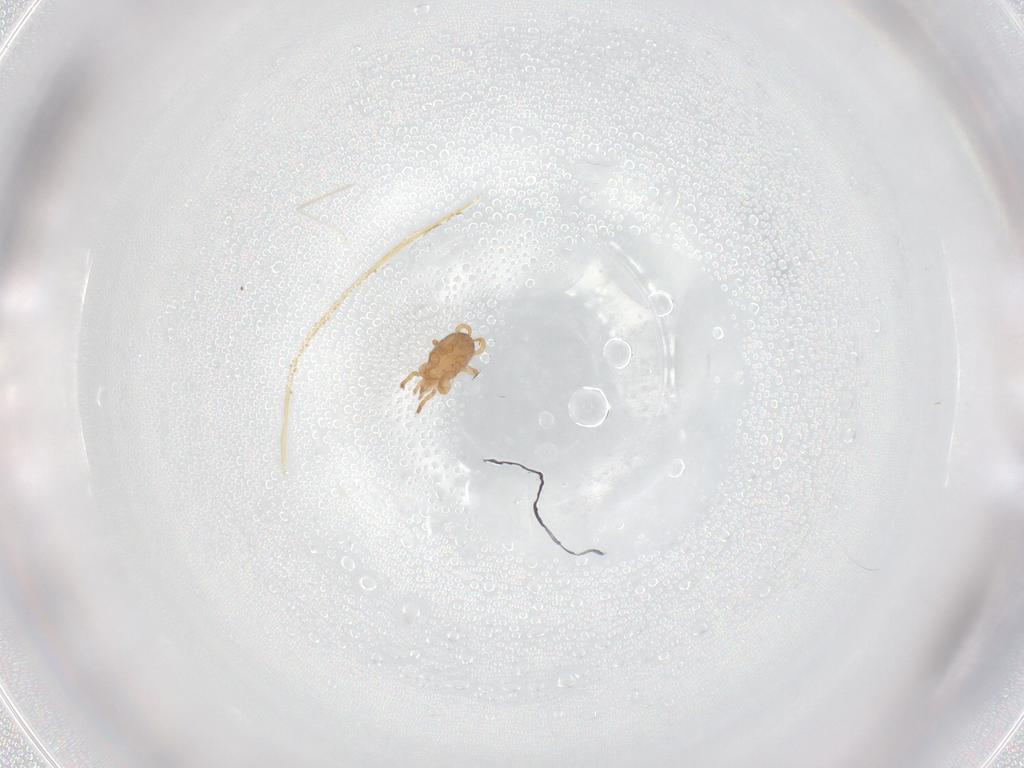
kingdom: Animalia
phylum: Arthropoda
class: Arachnida
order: Mesostigmata
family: Parasitidae
